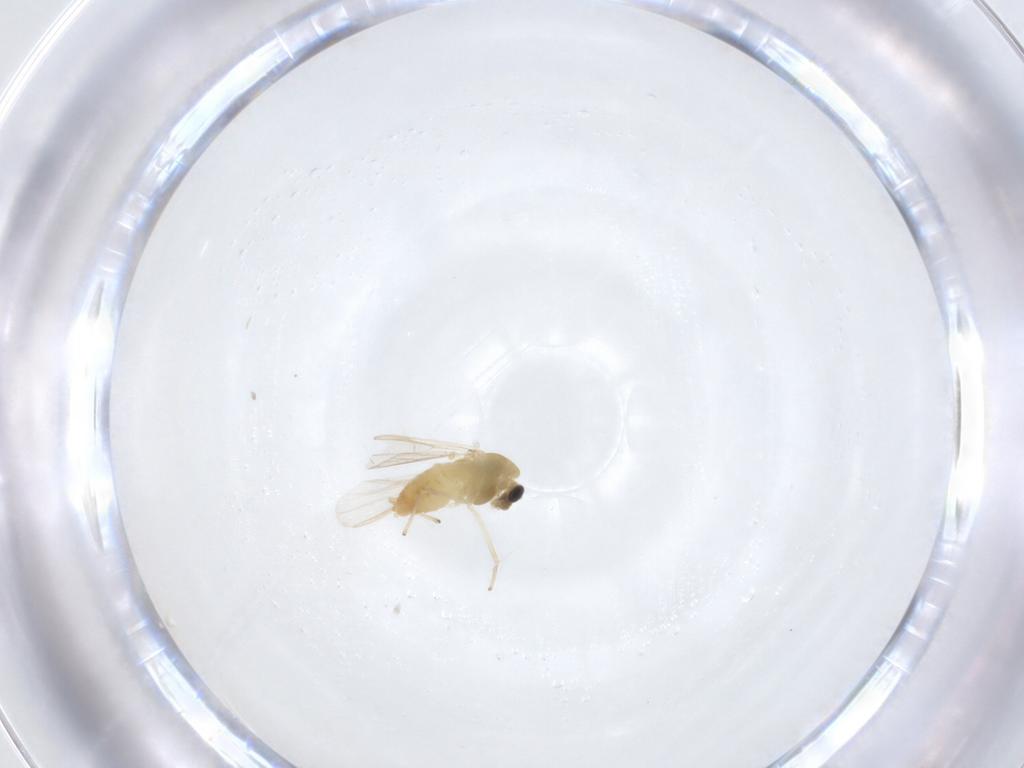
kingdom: Animalia
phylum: Arthropoda
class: Insecta
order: Diptera
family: Chironomidae
